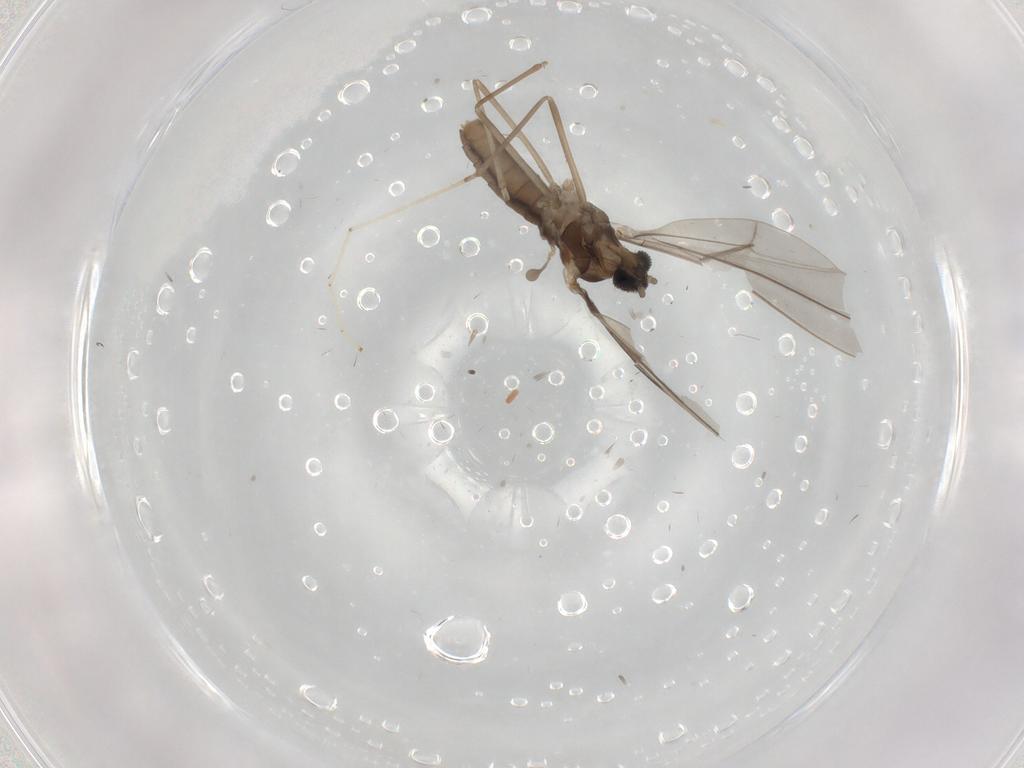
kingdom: Animalia
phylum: Arthropoda
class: Insecta
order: Diptera
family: Cecidomyiidae
